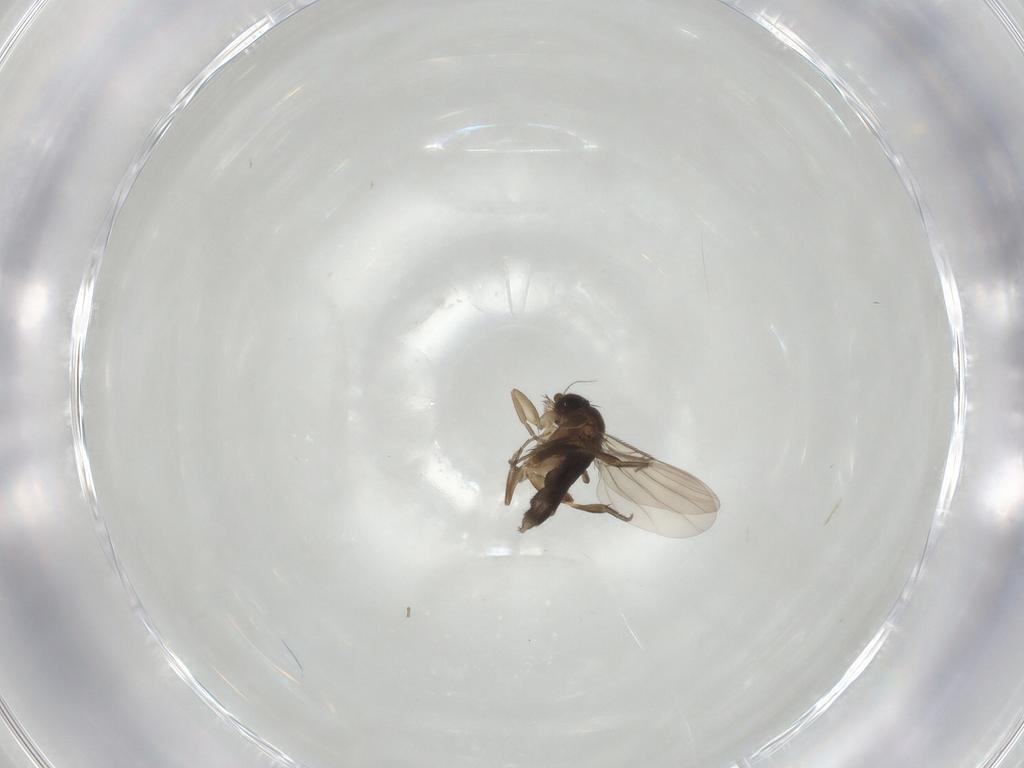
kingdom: Animalia
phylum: Arthropoda
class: Insecta
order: Diptera
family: Phoridae
